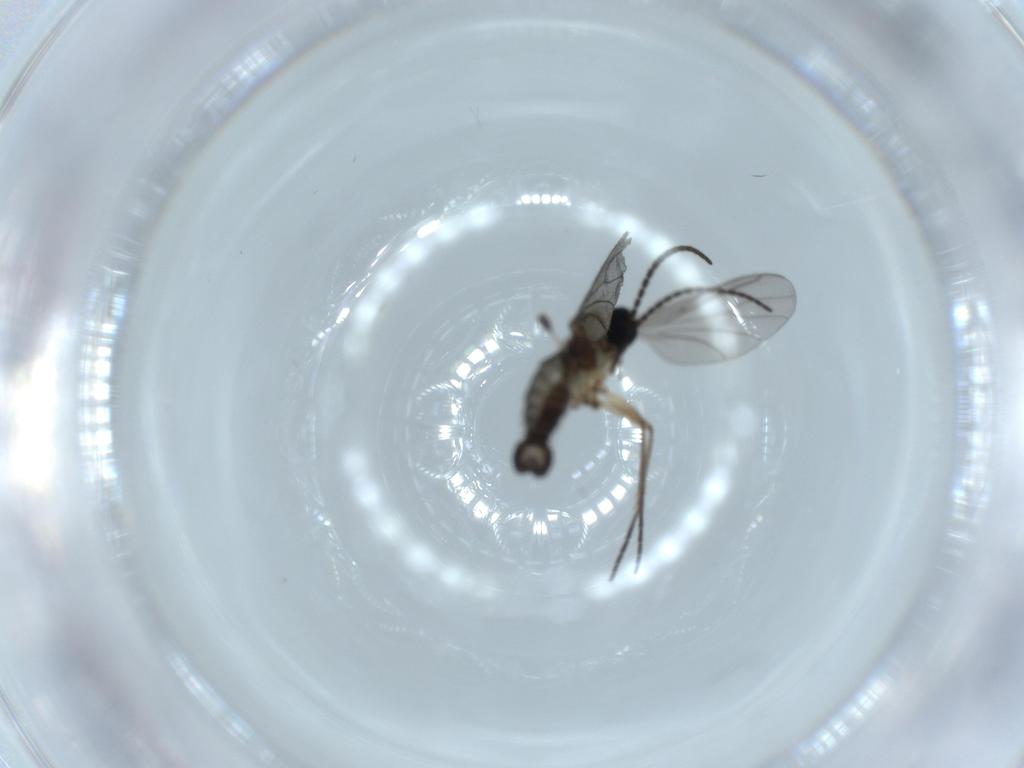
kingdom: Animalia
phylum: Arthropoda
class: Insecta
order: Diptera
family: Sciaridae
